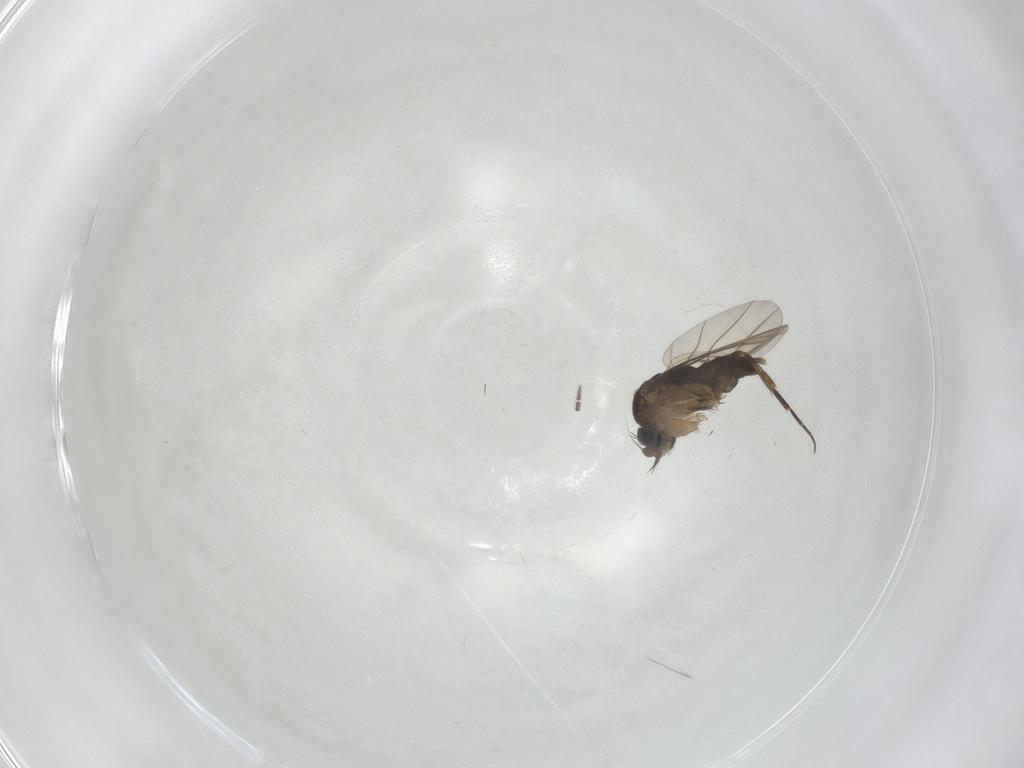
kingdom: Animalia
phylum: Arthropoda
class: Insecta
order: Diptera
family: Phoridae
